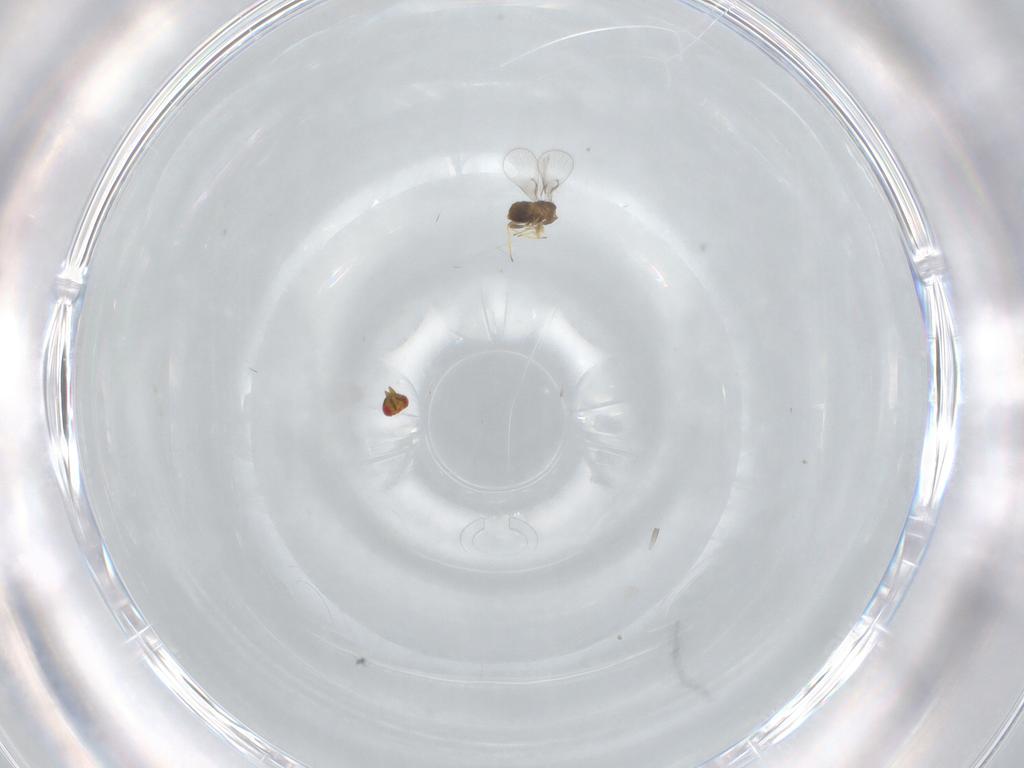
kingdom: Animalia
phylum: Arthropoda
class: Insecta
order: Hymenoptera
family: Trichogrammatidae
